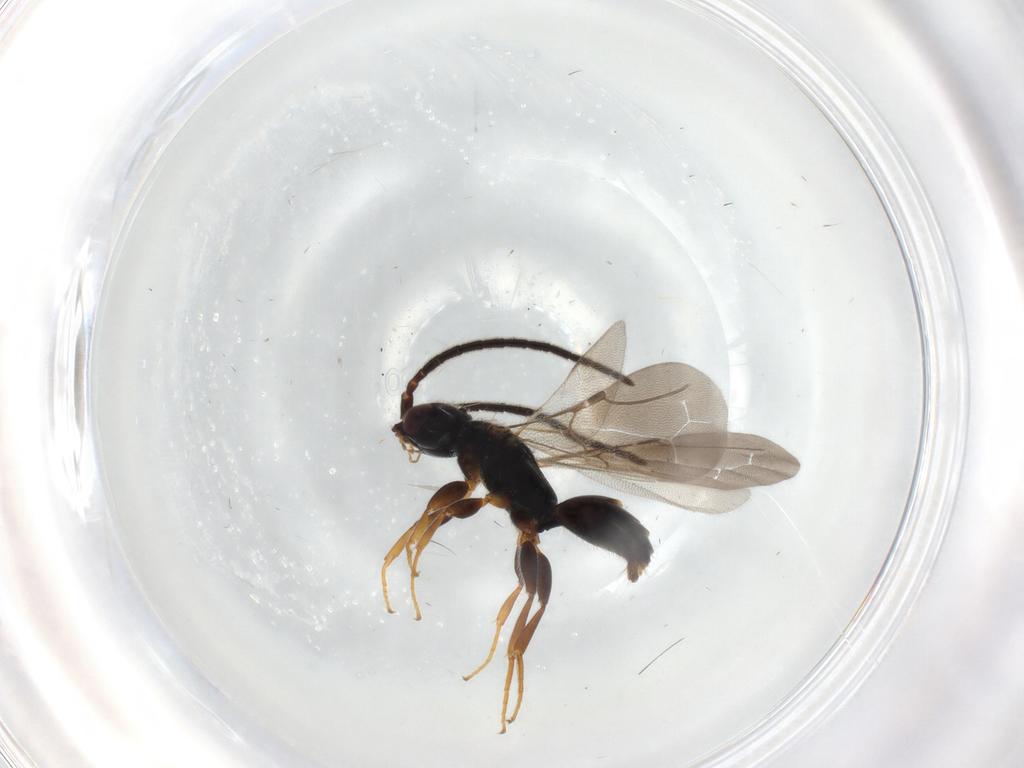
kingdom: Animalia
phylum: Arthropoda
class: Insecta
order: Hymenoptera
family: Bethylidae
